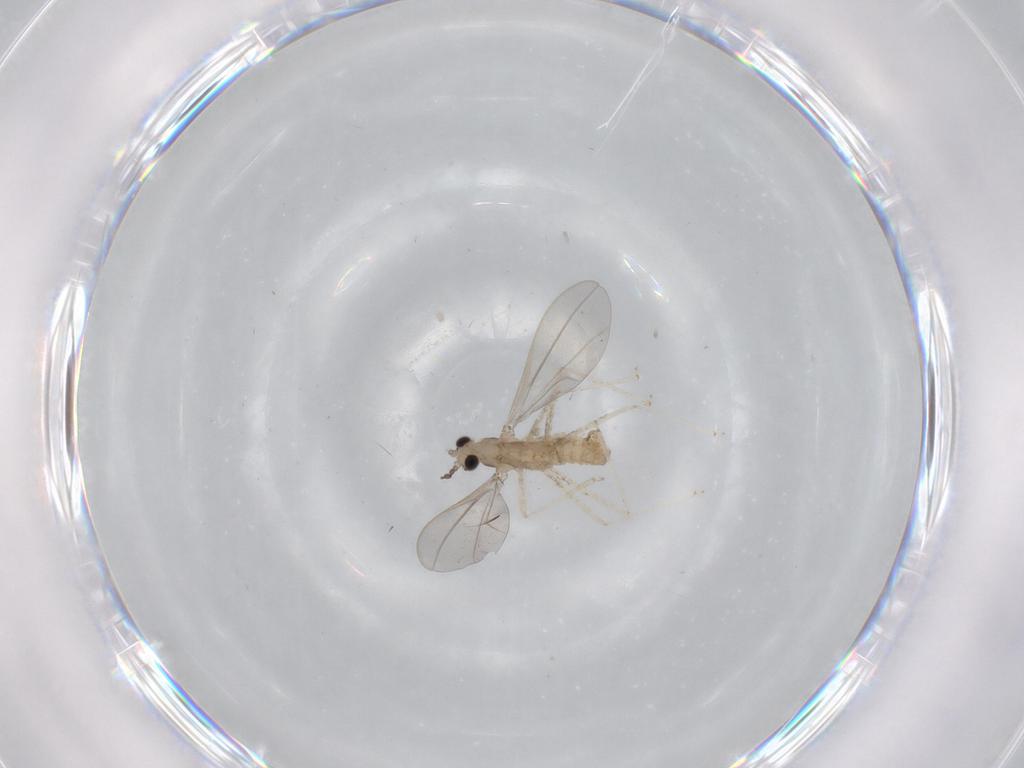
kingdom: Animalia
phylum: Arthropoda
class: Insecta
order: Diptera
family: Cecidomyiidae
